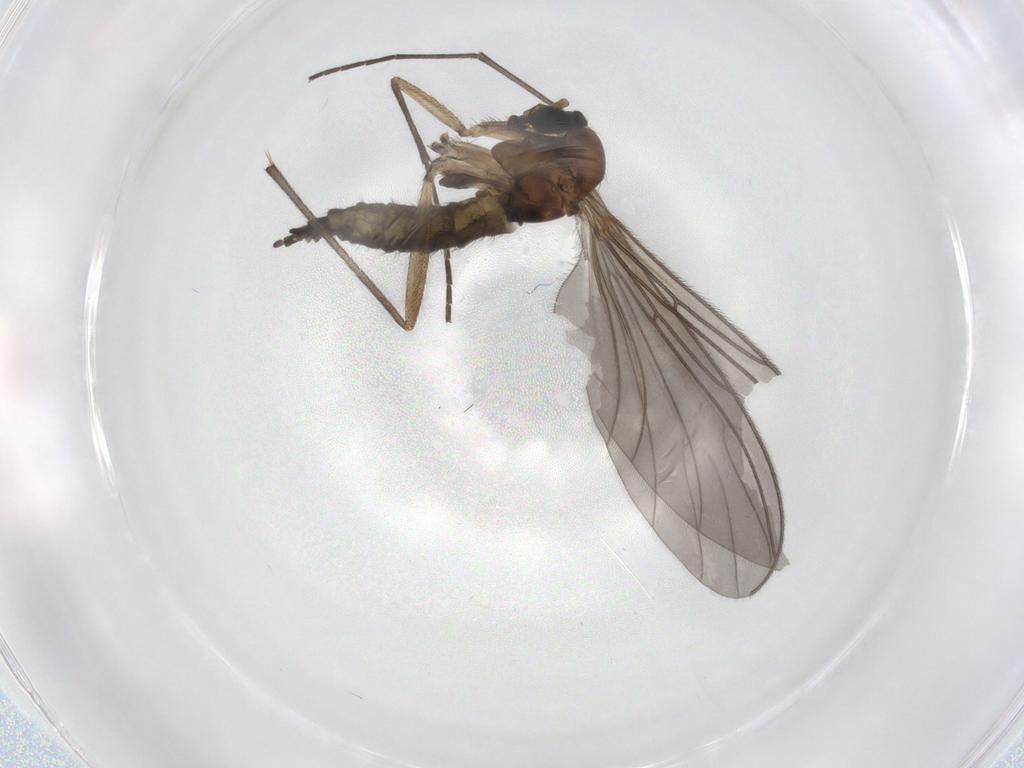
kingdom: Animalia
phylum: Arthropoda
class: Insecta
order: Diptera
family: Sciaridae
